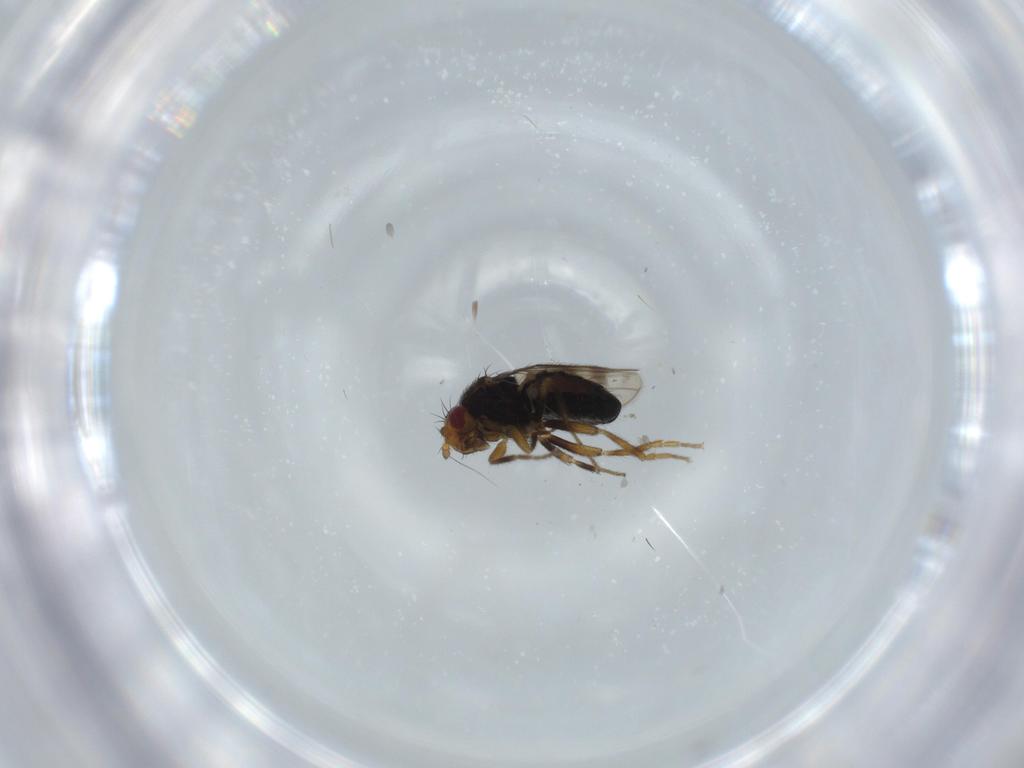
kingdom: Animalia
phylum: Arthropoda
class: Insecta
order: Diptera
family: Sphaeroceridae
